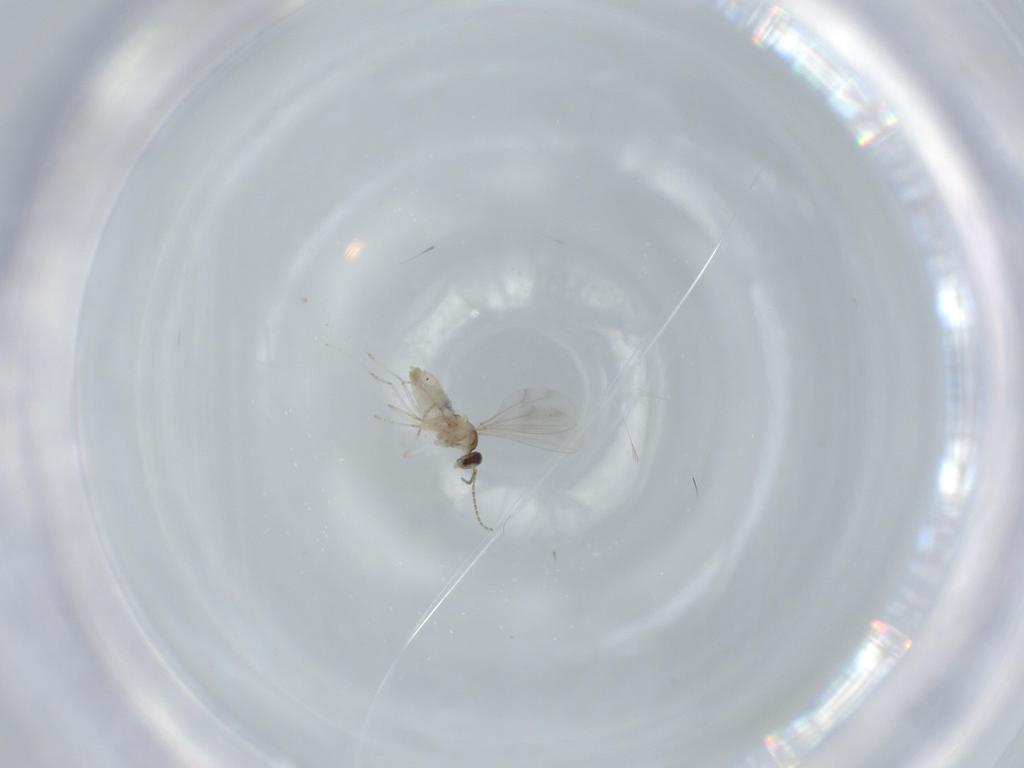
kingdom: Animalia
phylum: Arthropoda
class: Insecta
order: Diptera
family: Cecidomyiidae
